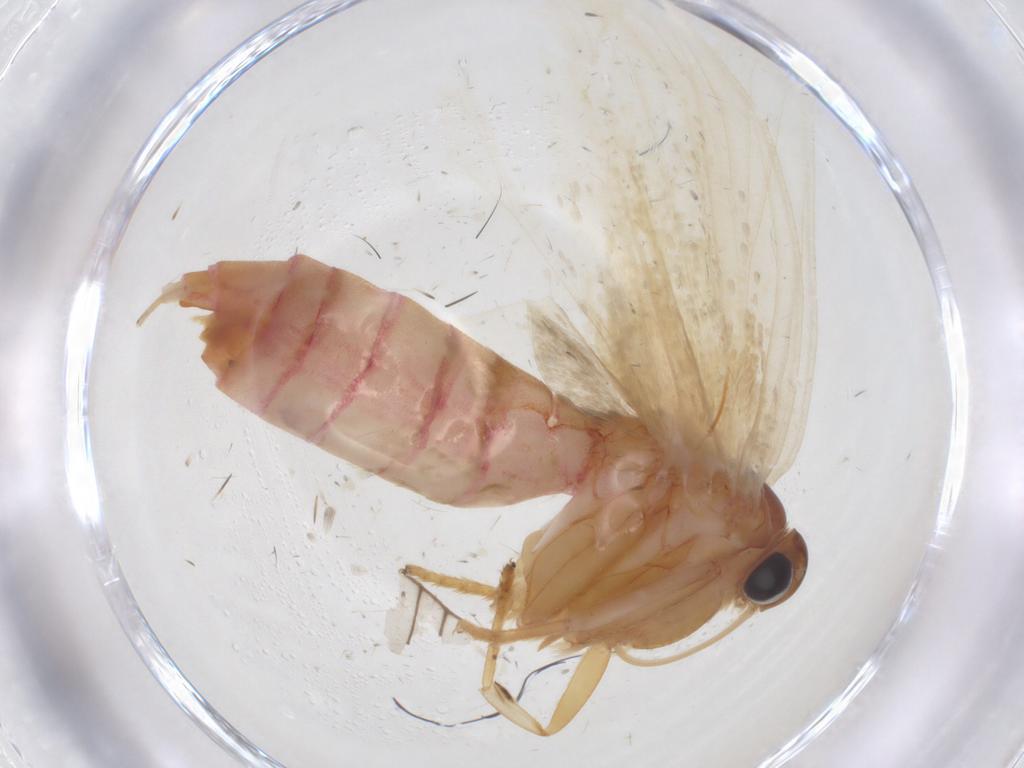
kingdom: Animalia
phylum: Arthropoda
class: Insecta
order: Lepidoptera
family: Oecophoridae
